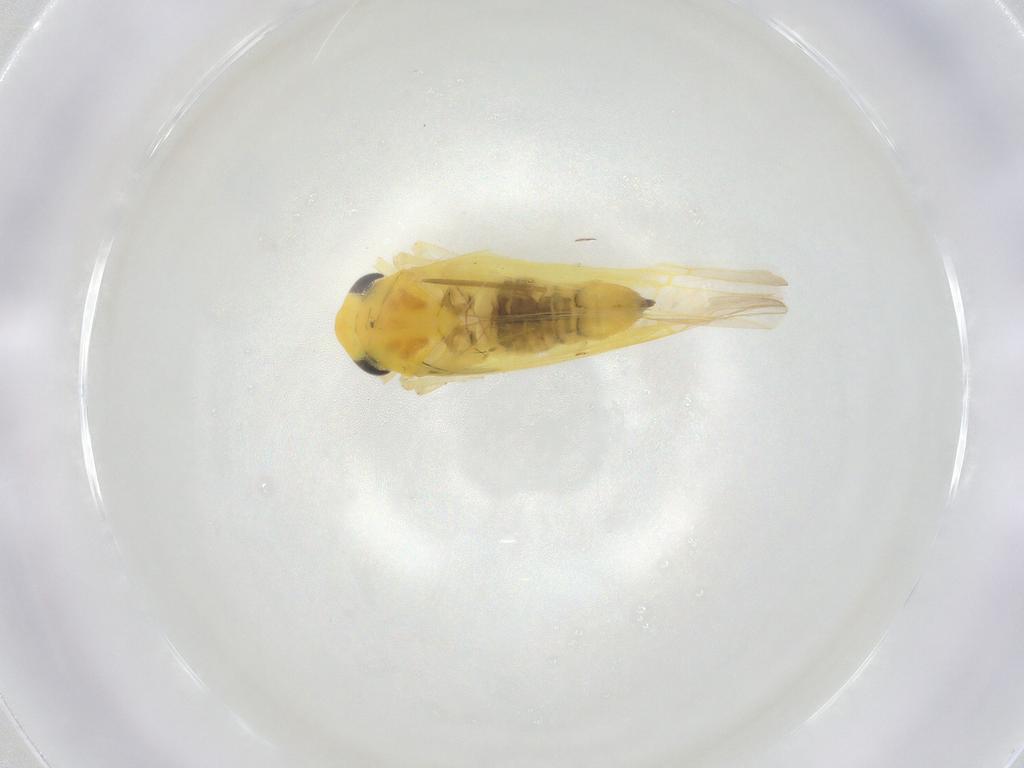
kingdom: Animalia
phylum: Arthropoda
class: Insecta
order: Hemiptera
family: Cicadellidae
